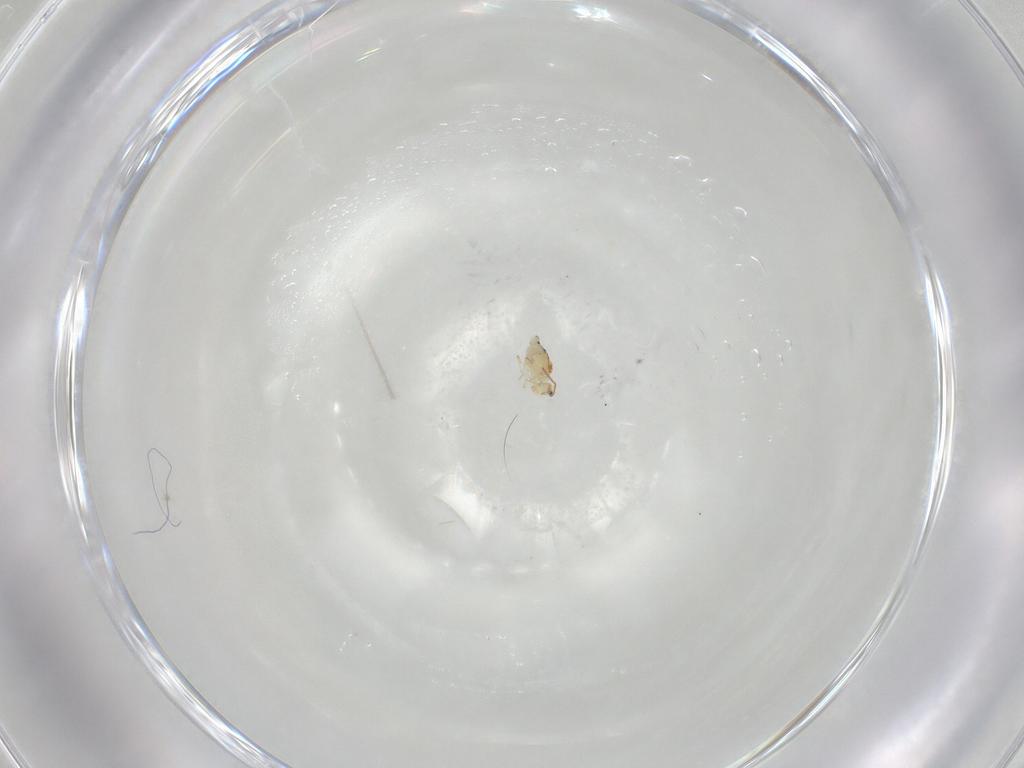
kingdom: Animalia
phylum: Arthropoda
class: Collembola
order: Symphypleona
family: Bourletiellidae
